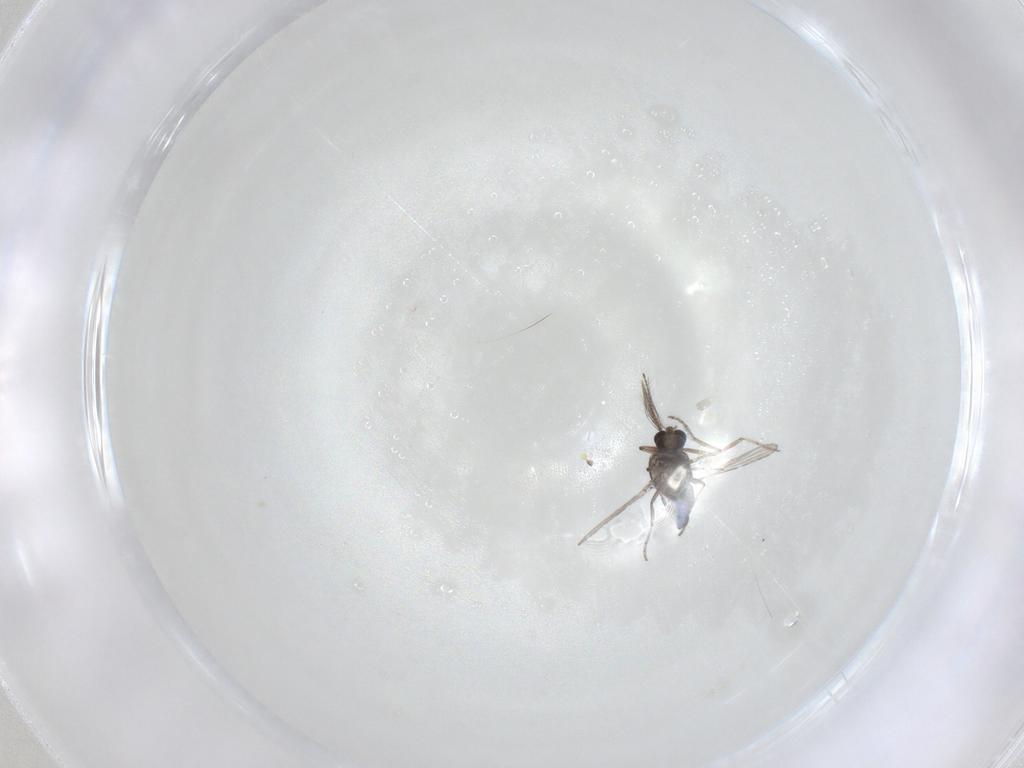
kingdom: Animalia
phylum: Arthropoda
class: Insecta
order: Diptera
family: Ceratopogonidae
